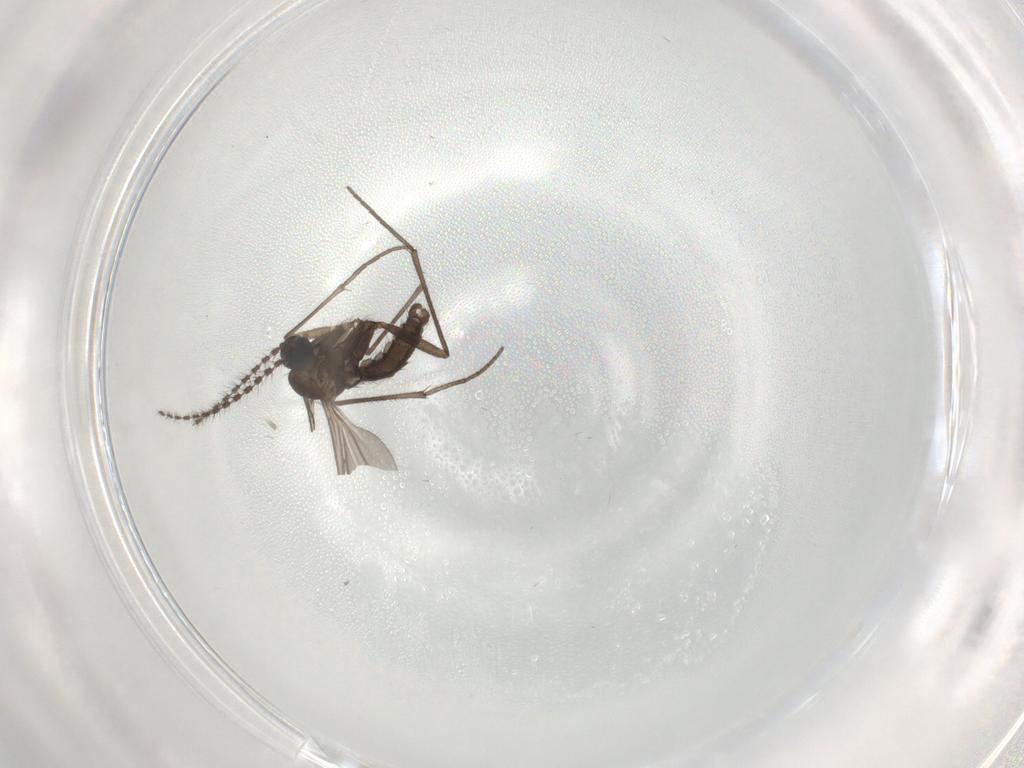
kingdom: Animalia
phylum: Arthropoda
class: Insecta
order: Diptera
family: Sciaridae
